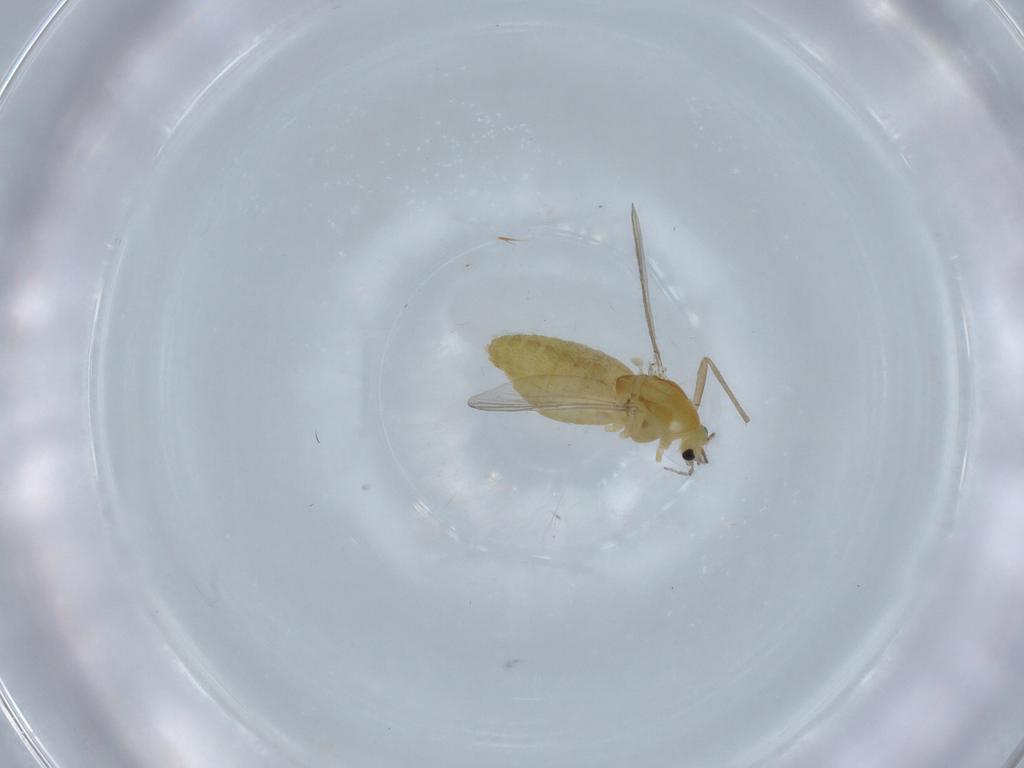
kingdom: Animalia
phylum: Arthropoda
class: Insecta
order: Diptera
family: Chironomidae
